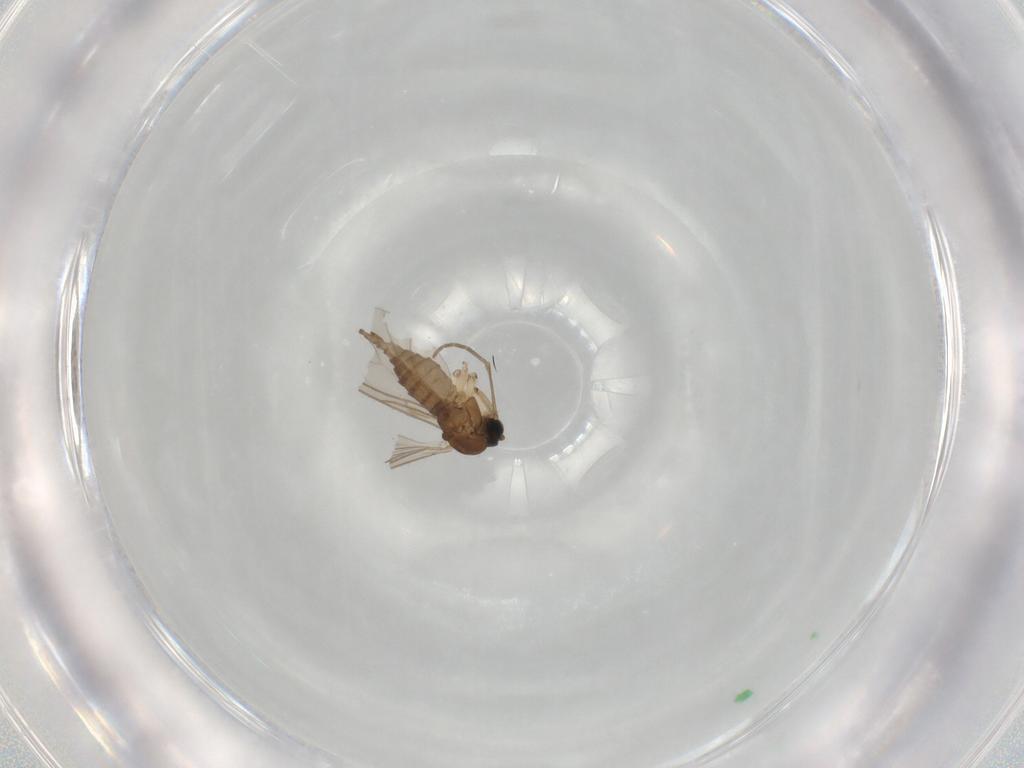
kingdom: Animalia
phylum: Arthropoda
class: Insecta
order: Diptera
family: Sciaridae
